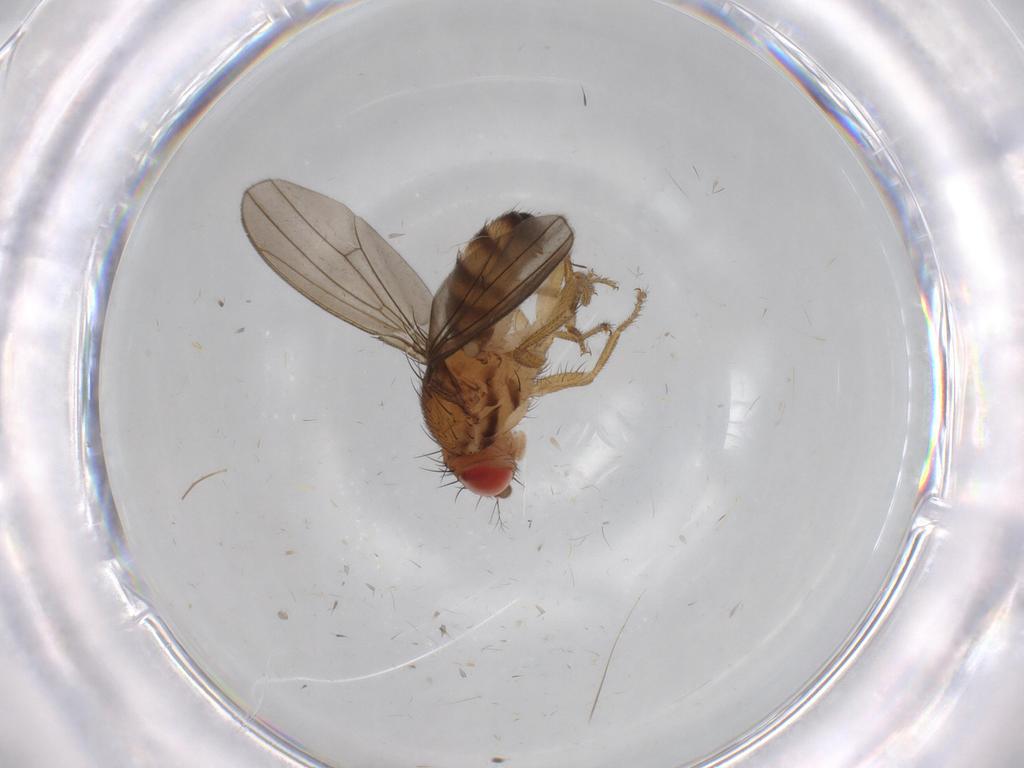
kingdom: Animalia
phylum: Arthropoda
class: Insecta
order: Diptera
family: Drosophilidae
